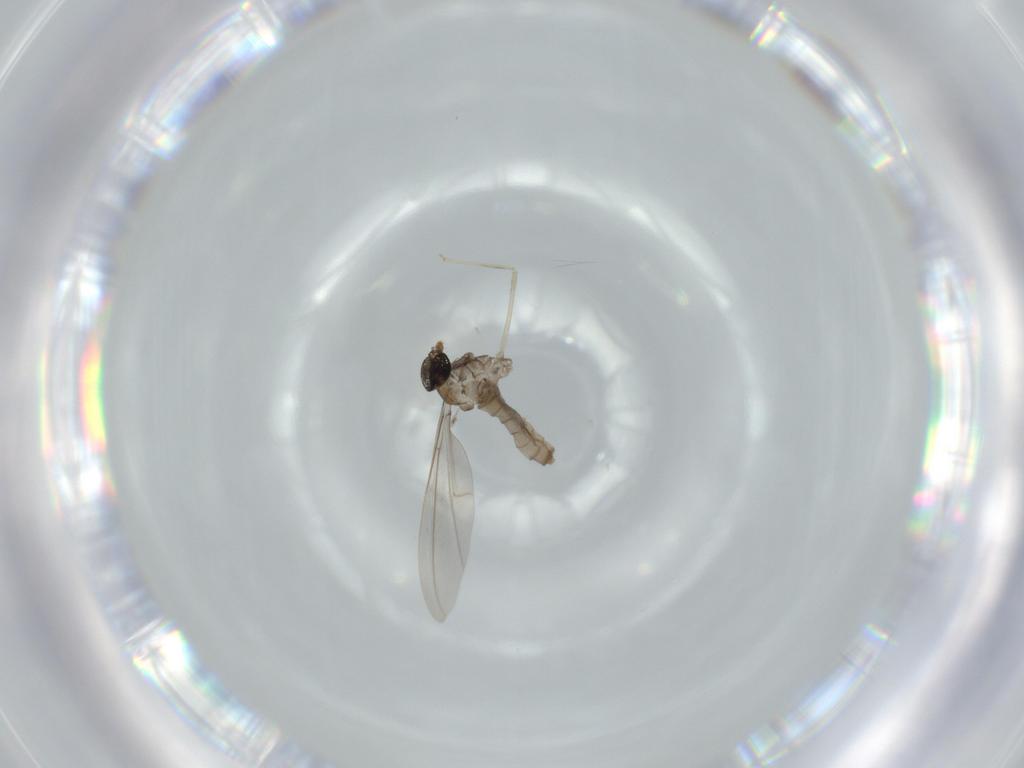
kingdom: Animalia
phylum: Arthropoda
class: Insecta
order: Diptera
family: Cecidomyiidae
